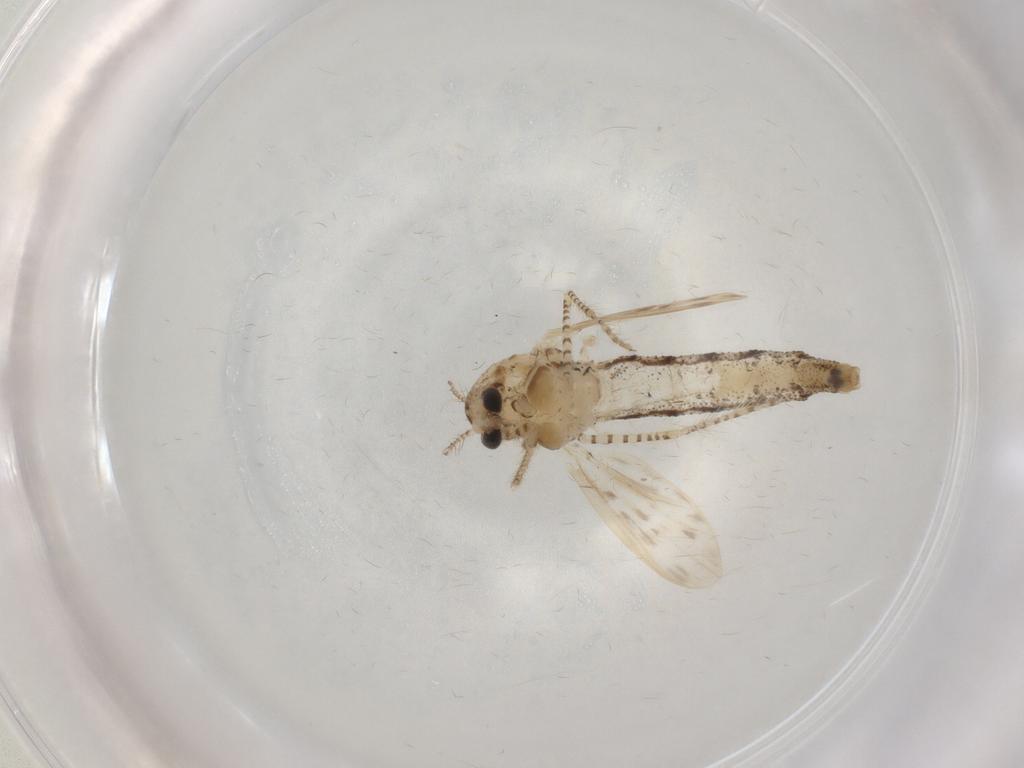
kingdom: Animalia
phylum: Arthropoda
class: Insecta
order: Diptera
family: Chaoboridae
